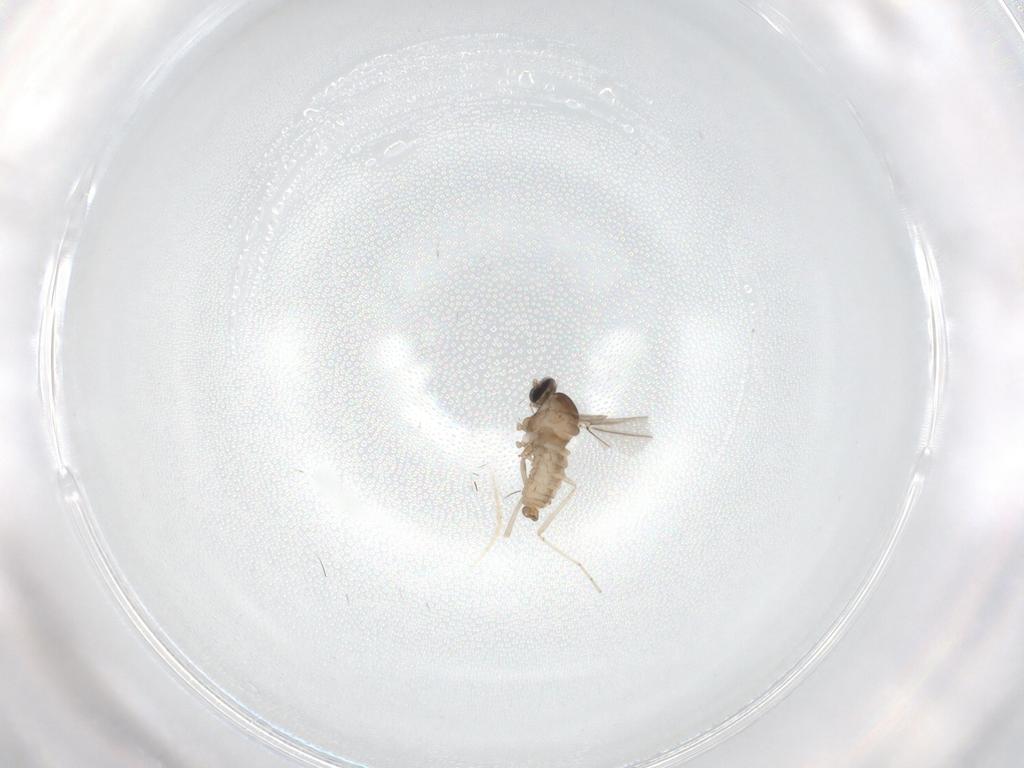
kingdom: Animalia
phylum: Arthropoda
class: Insecta
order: Diptera
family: Cecidomyiidae
